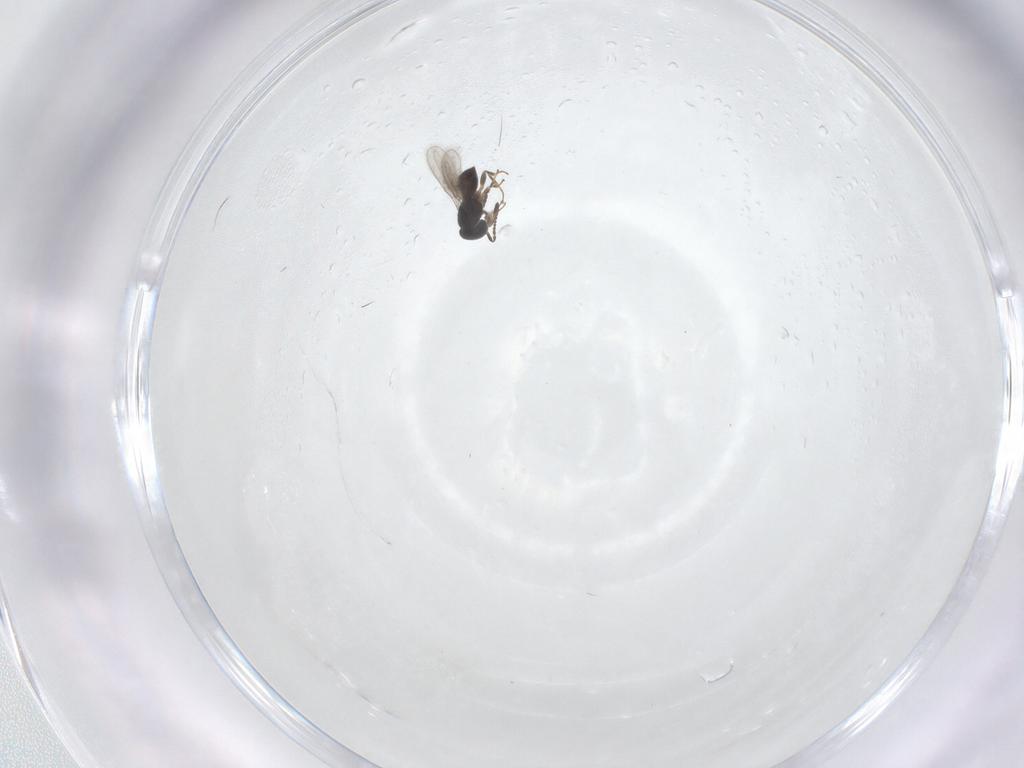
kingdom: Animalia
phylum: Arthropoda
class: Insecta
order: Hymenoptera
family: Scelionidae
